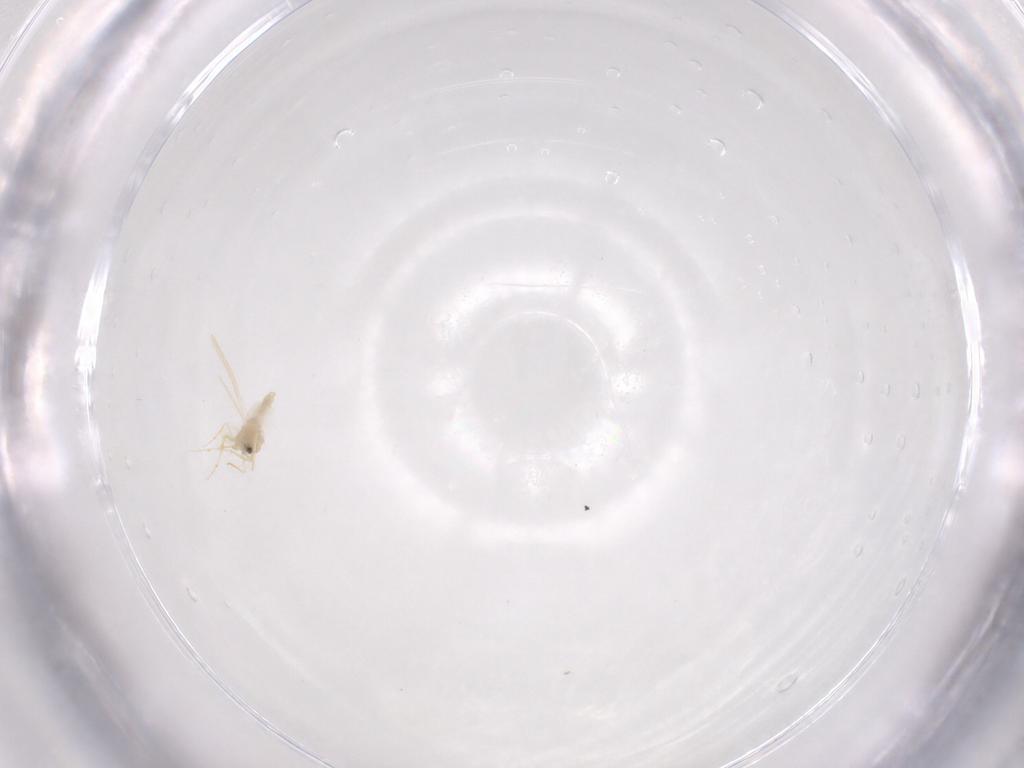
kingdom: Animalia
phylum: Arthropoda
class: Insecta
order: Hemiptera
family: Aleyrodidae
